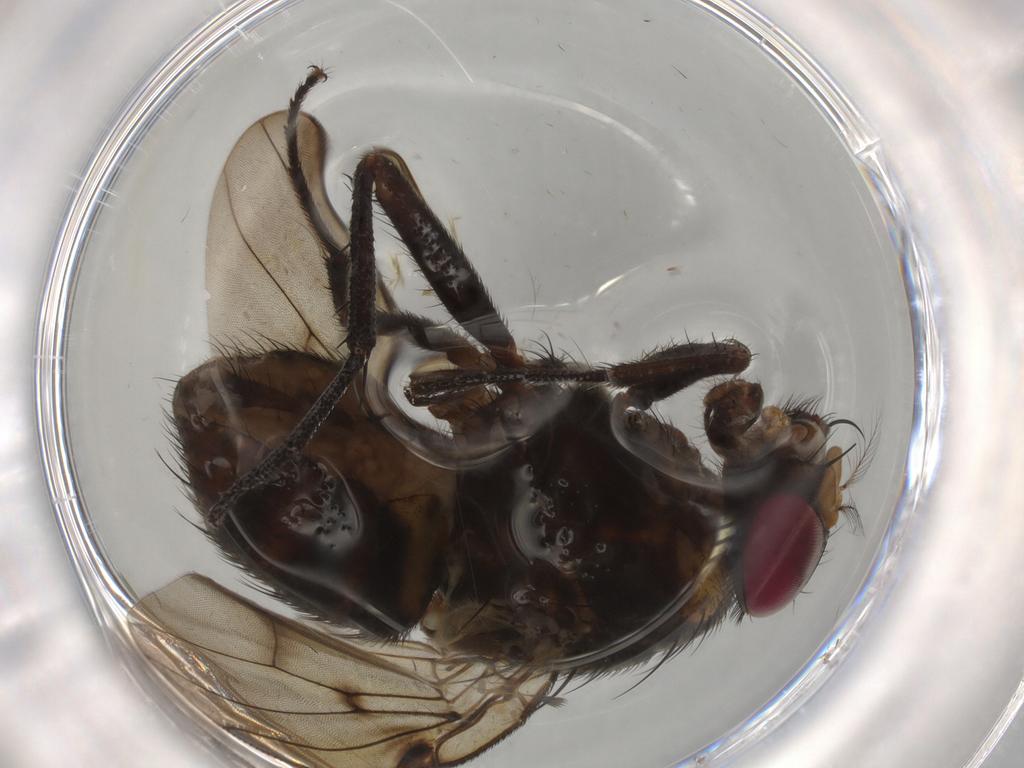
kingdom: Animalia
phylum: Arthropoda
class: Insecta
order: Diptera
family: Muscidae
